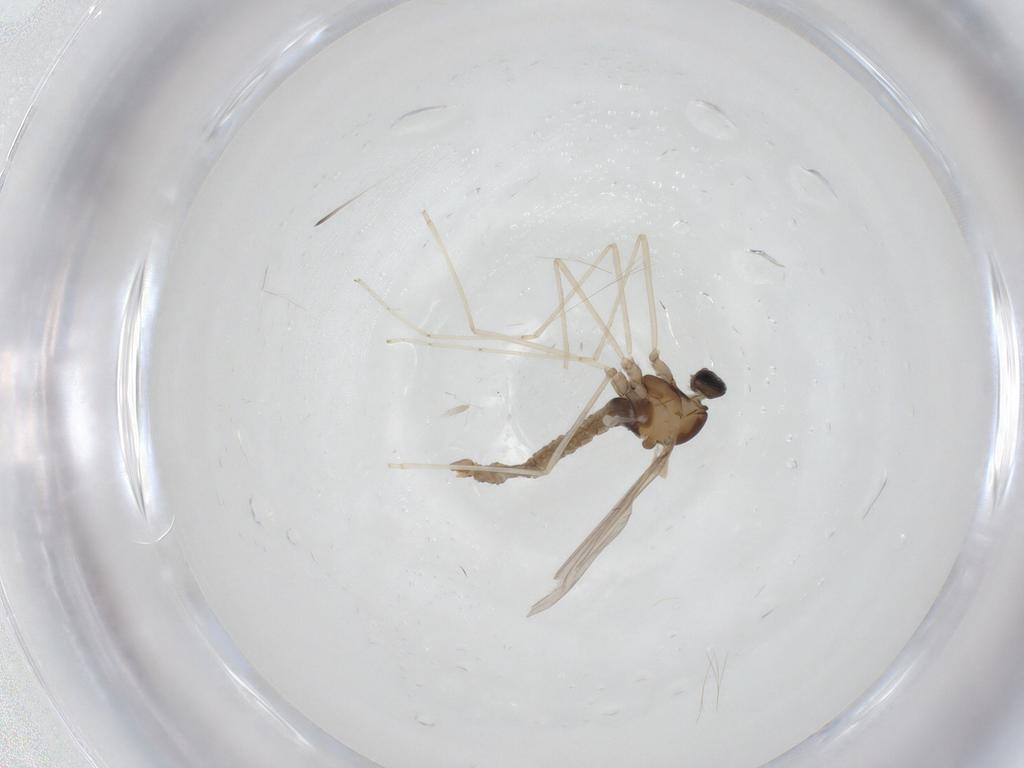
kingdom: Animalia
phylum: Arthropoda
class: Insecta
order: Diptera
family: Cecidomyiidae
